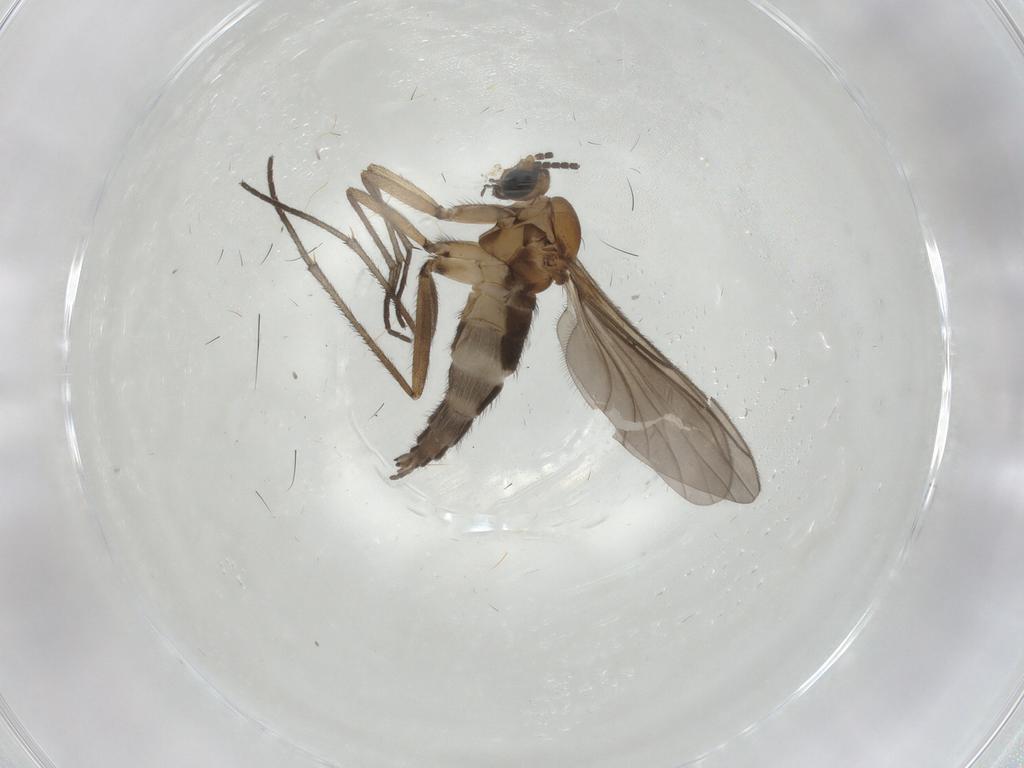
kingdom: Animalia
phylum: Arthropoda
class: Insecta
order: Diptera
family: Sciaridae
